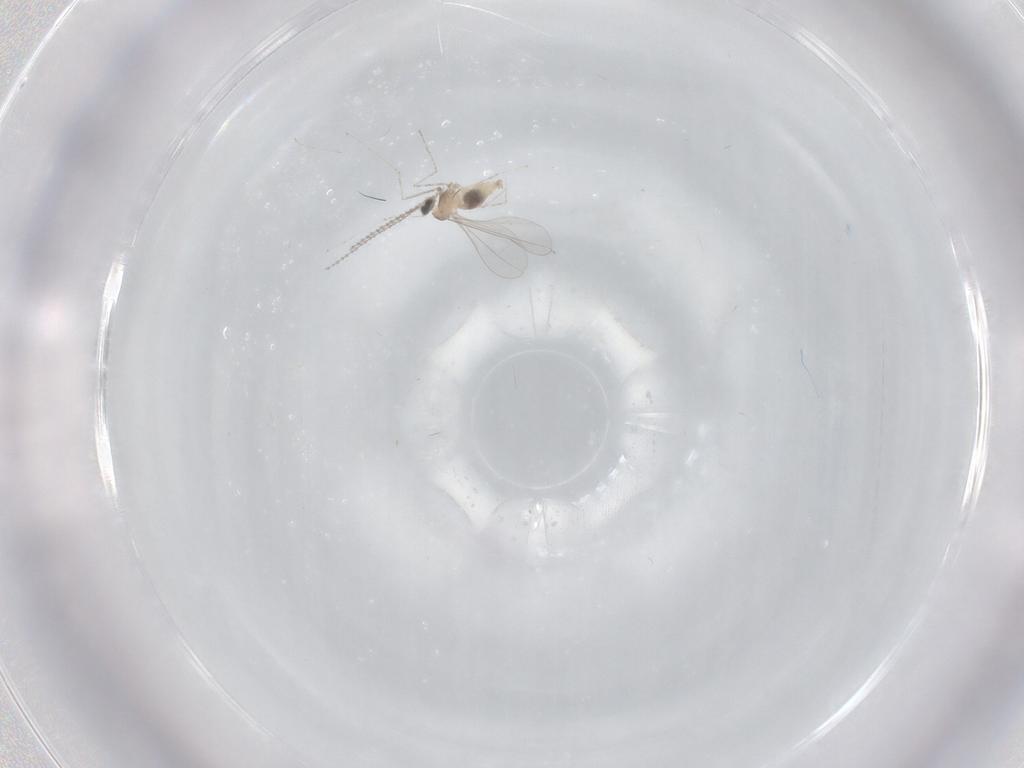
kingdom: Animalia
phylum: Arthropoda
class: Insecta
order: Diptera
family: Cecidomyiidae
